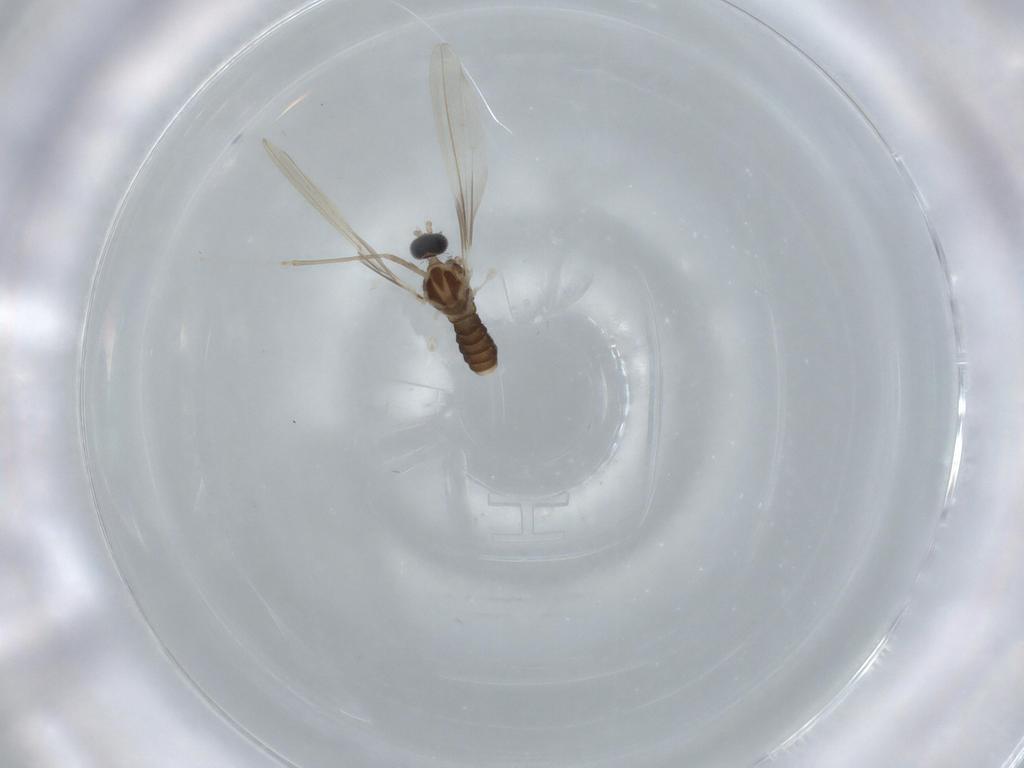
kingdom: Animalia
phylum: Arthropoda
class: Insecta
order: Diptera
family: Cecidomyiidae
